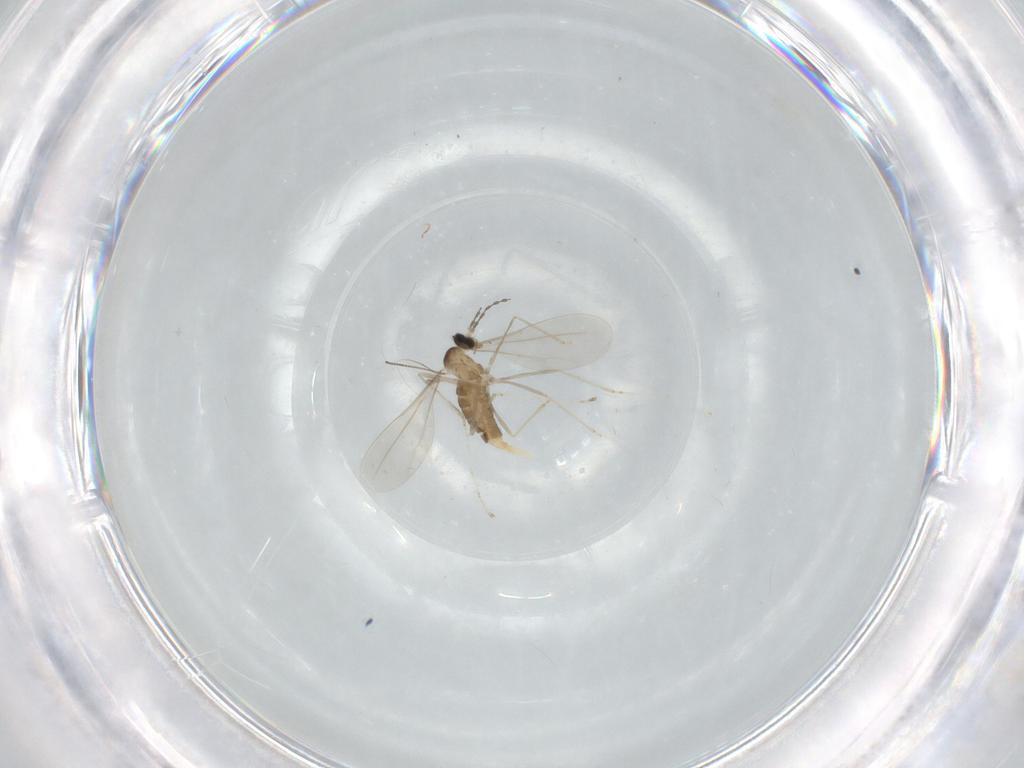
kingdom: Animalia
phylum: Arthropoda
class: Insecta
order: Diptera
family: Cecidomyiidae
